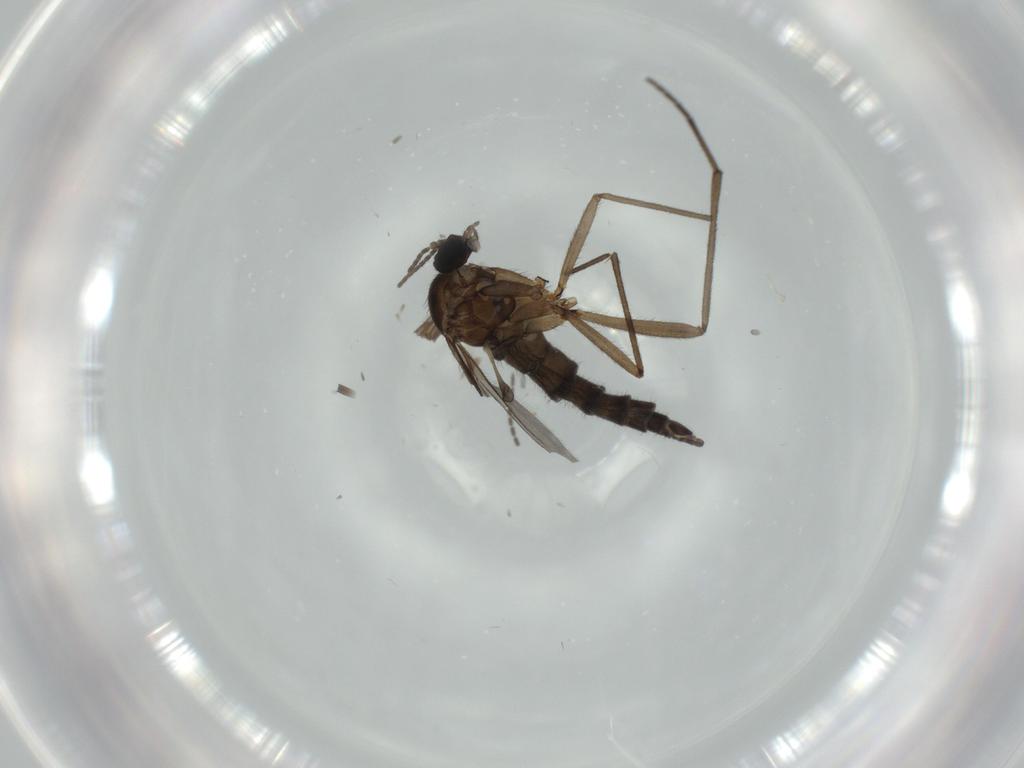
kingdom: Animalia
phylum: Arthropoda
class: Insecta
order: Diptera
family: Sciaridae
